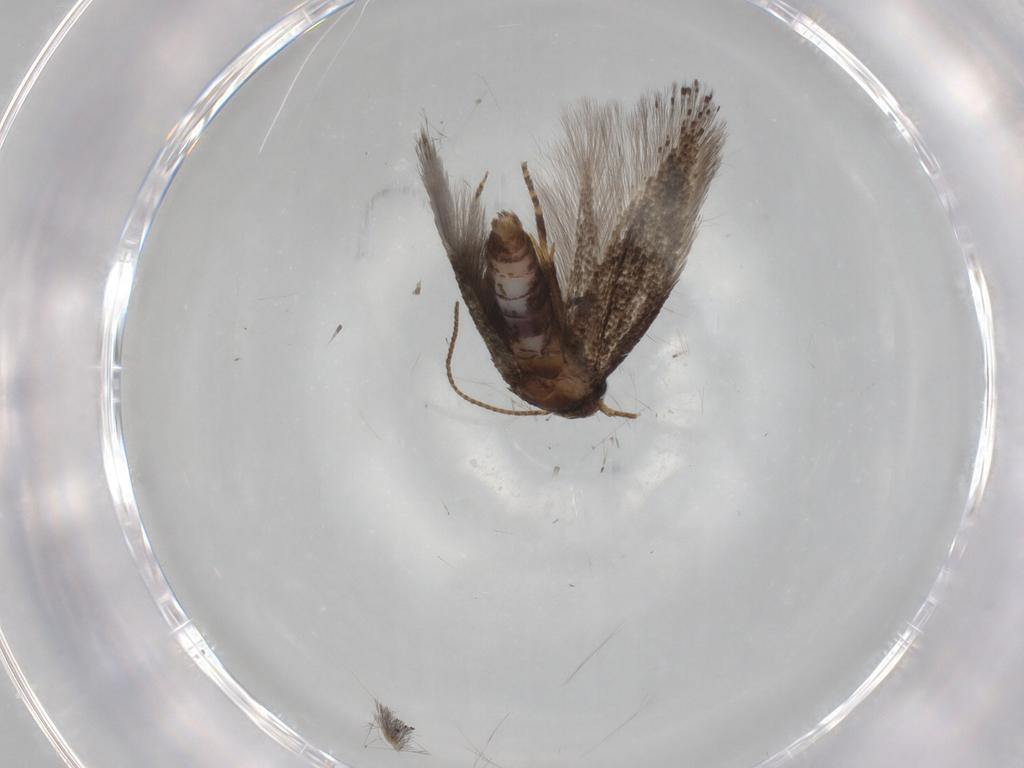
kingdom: Animalia
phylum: Arthropoda
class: Insecta
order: Lepidoptera
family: Elachistidae
